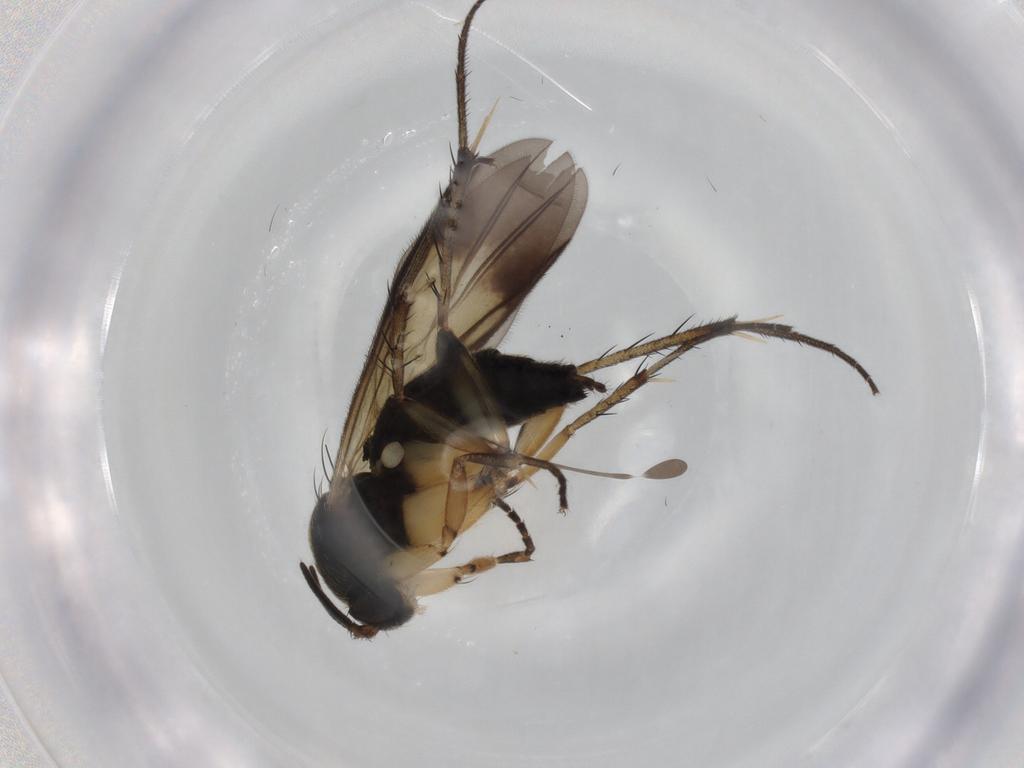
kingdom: Animalia
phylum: Arthropoda
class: Insecta
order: Diptera
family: Mycetophilidae
